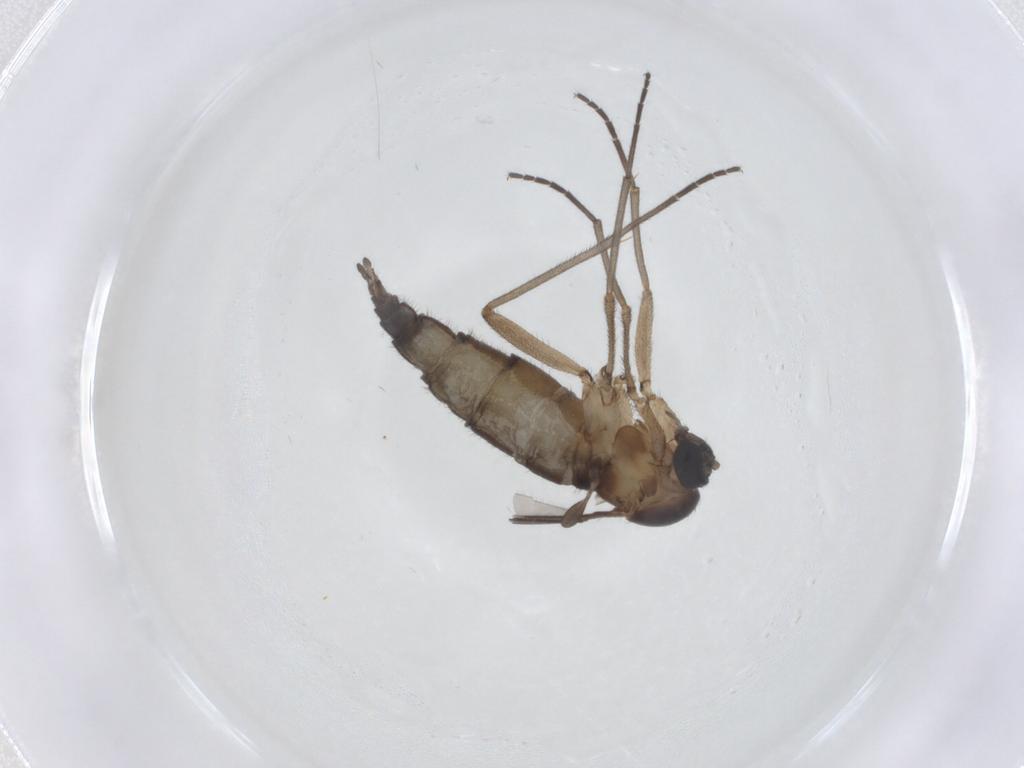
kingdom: Animalia
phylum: Arthropoda
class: Insecta
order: Diptera
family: Sciaridae
